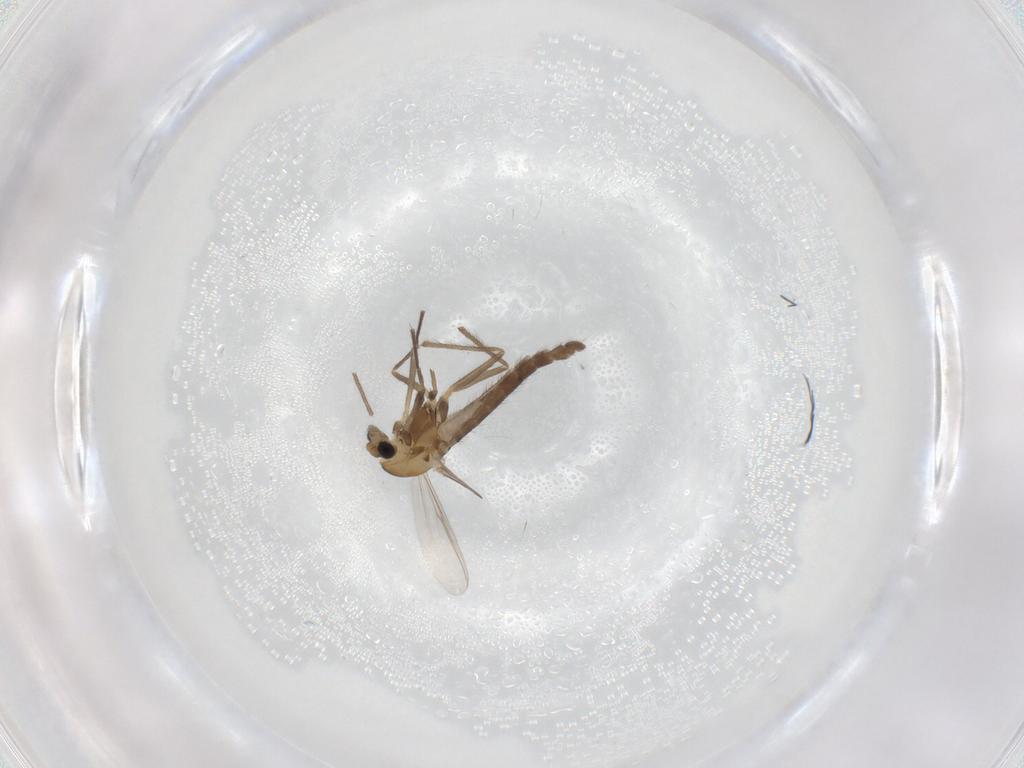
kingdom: Animalia
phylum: Arthropoda
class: Insecta
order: Diptera
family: Chironomidae
